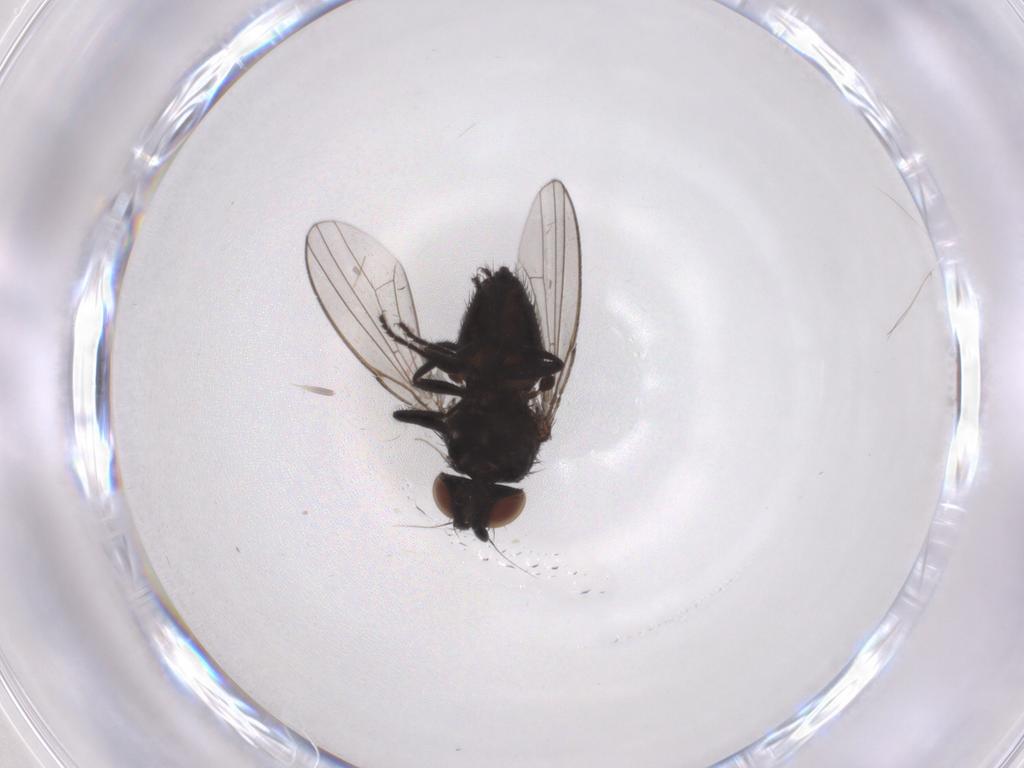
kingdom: Animalia
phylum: Arthropoda
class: Insecta
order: Diptera
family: Milichiidae
